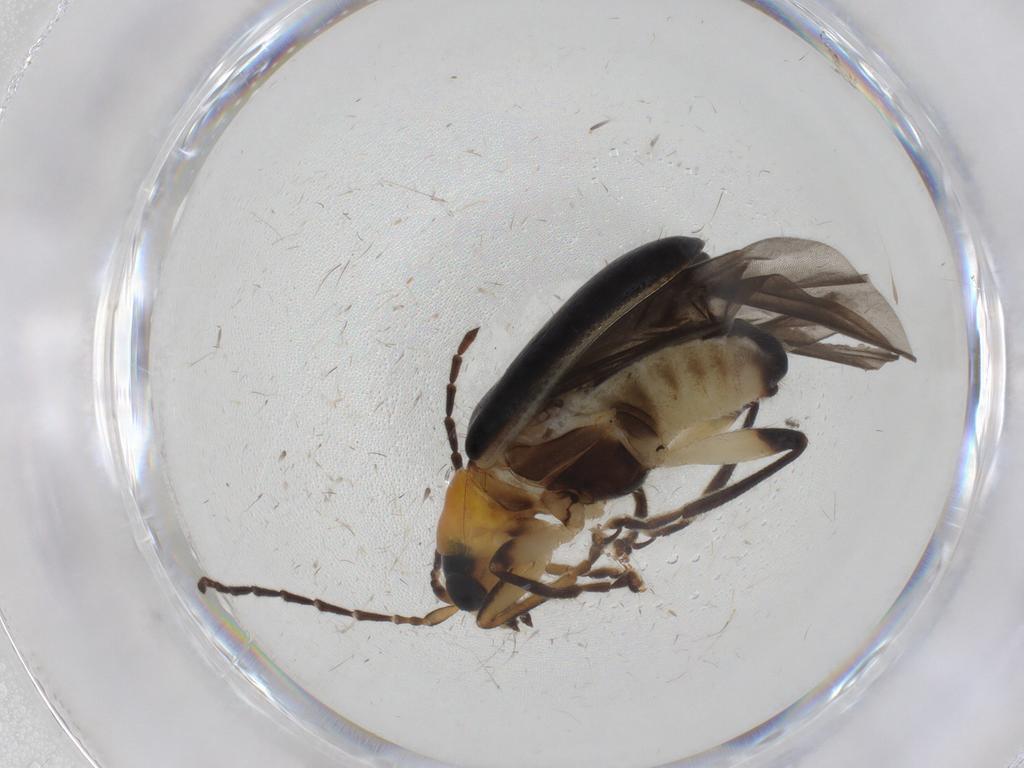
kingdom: Animalia
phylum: Arthropoda
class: Insecta
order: Coleoptera
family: Chrysomelidae
